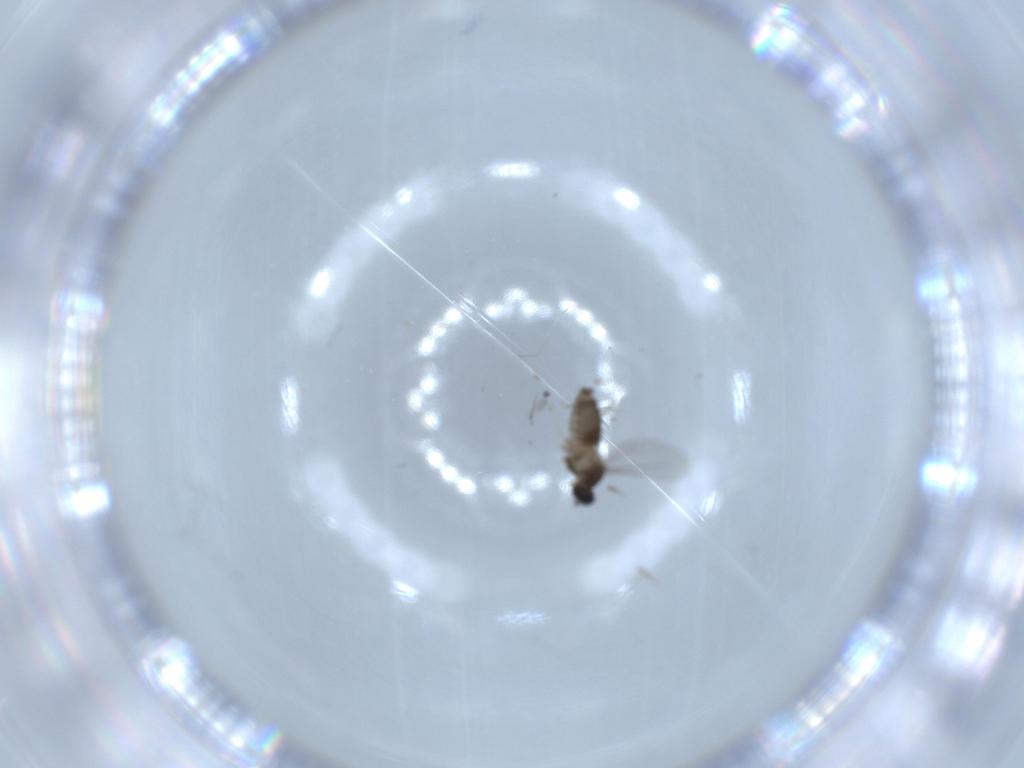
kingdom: Animalia
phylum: Arthropoda
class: Insecta
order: Diptera
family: Cecidomyiidae
